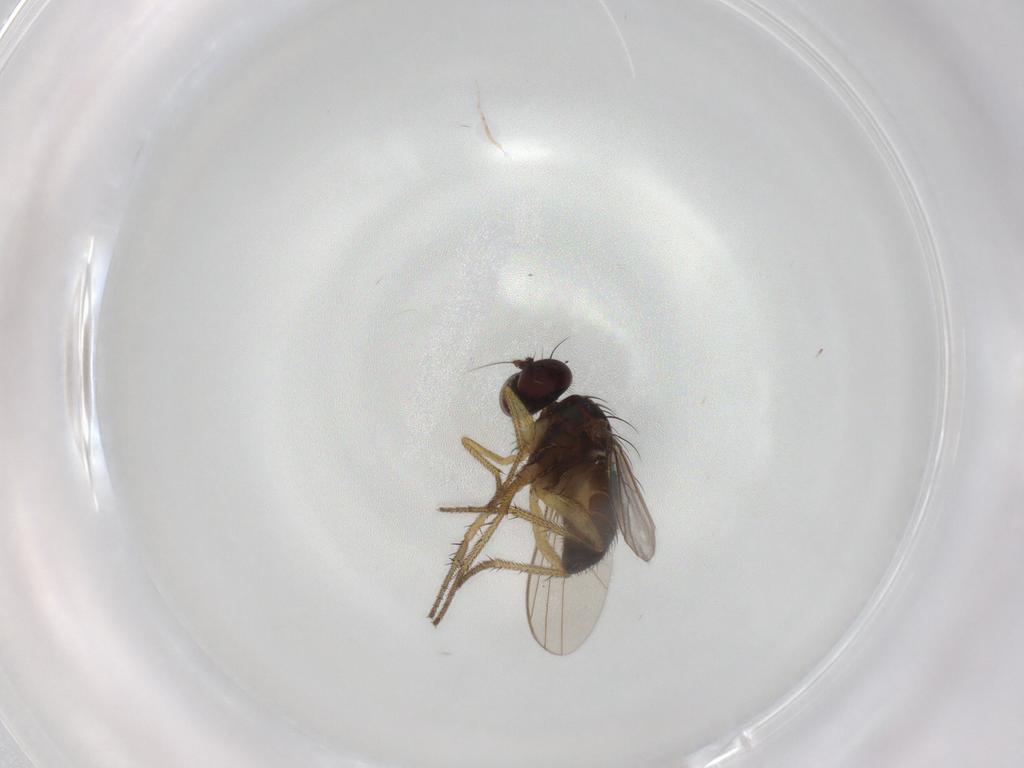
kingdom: Animalia
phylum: Arthropoda
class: Insecta
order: Diptera
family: Dolichopodidae
